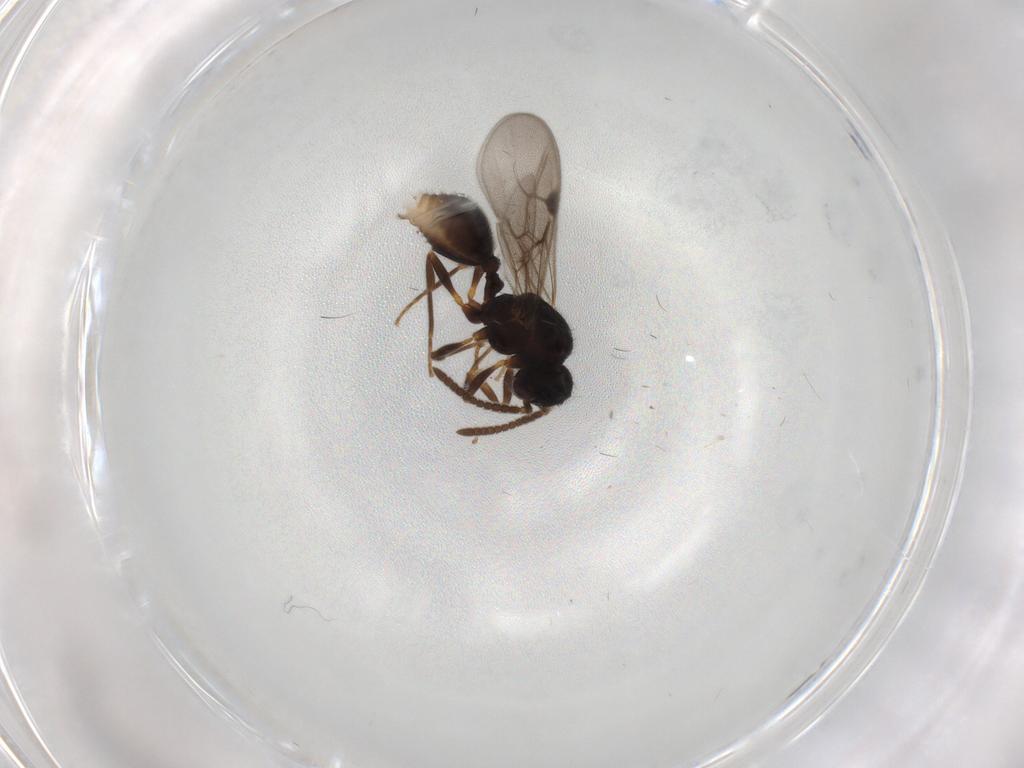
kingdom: Animalia
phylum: Arthropoda
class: Insecta
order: Hymenoptera
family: Formicidae
